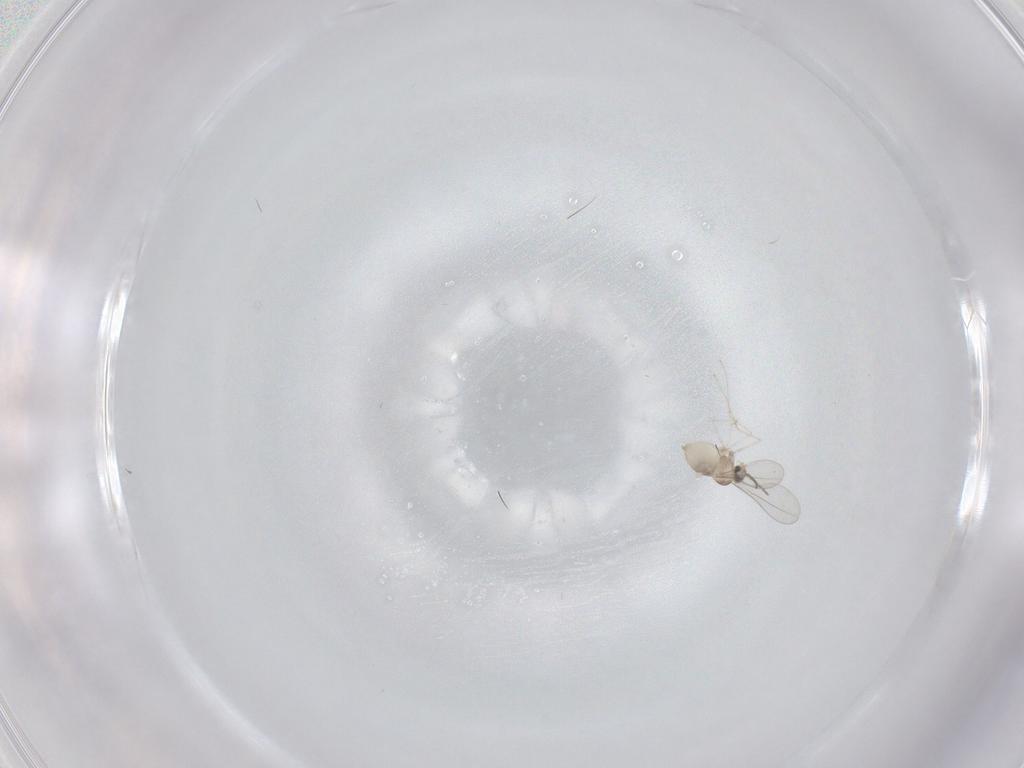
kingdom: Animalia
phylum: Arthropoda
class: Insecta
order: Diptera
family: Cecidomyiidae
